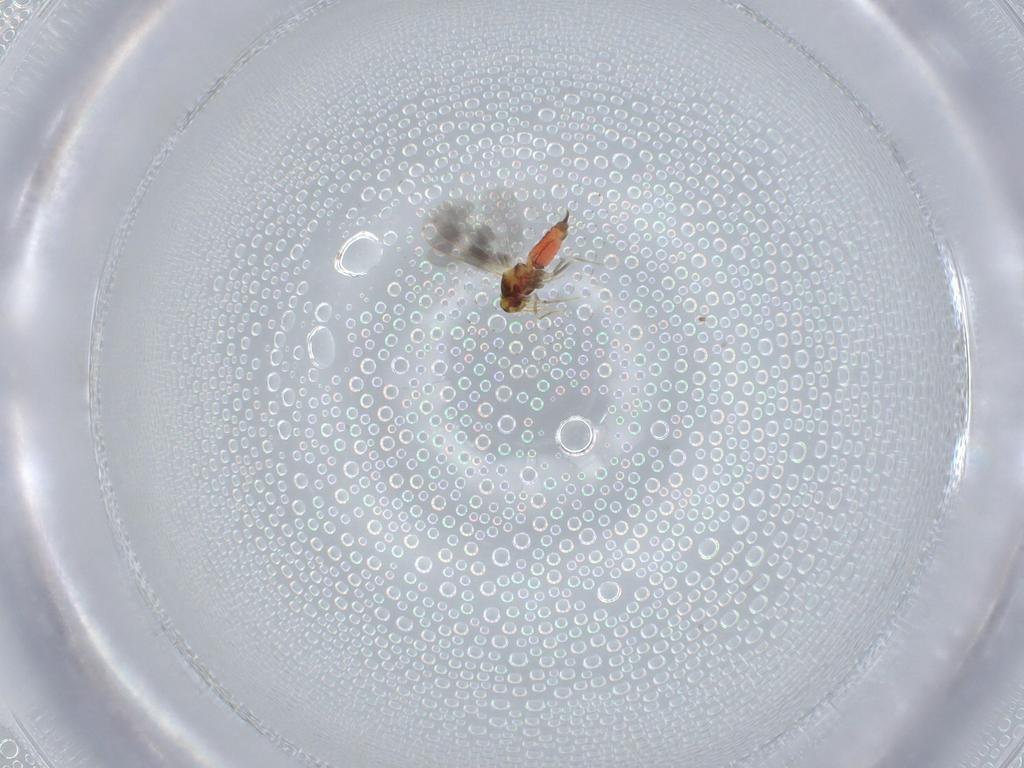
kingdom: Animalia
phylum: Arthropoda
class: Insecta
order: Hemiptera
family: Aleyrodidae
